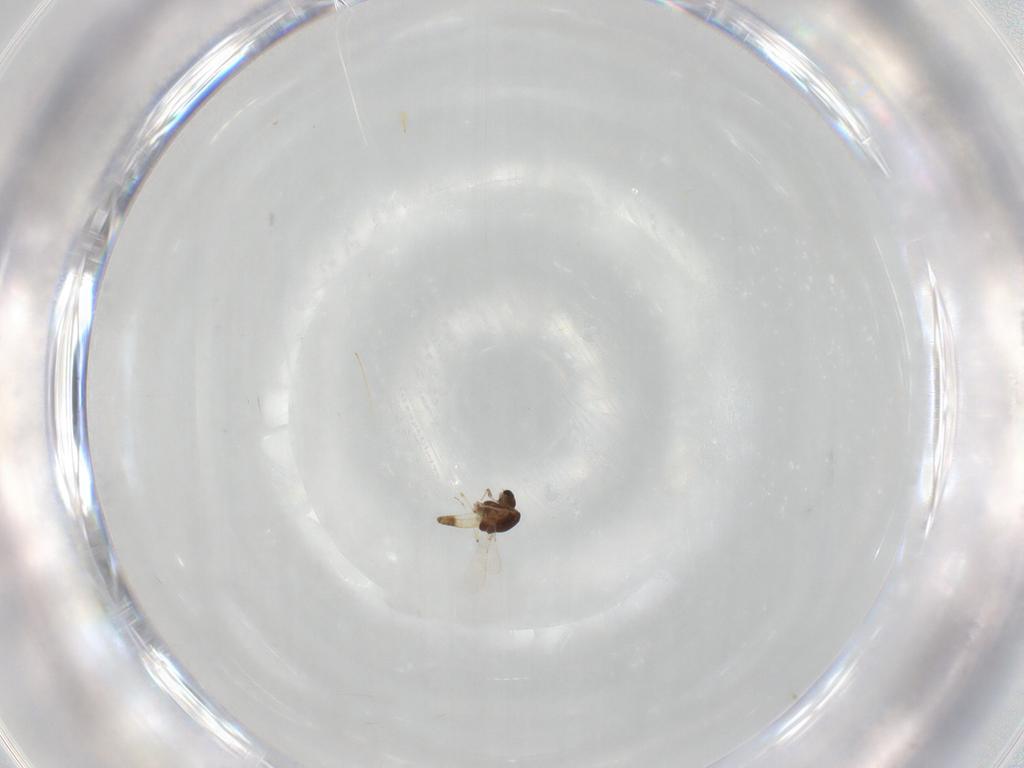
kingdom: Animalia
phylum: Arthropoda
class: Insecta
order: Diptera
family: Chironomidae
